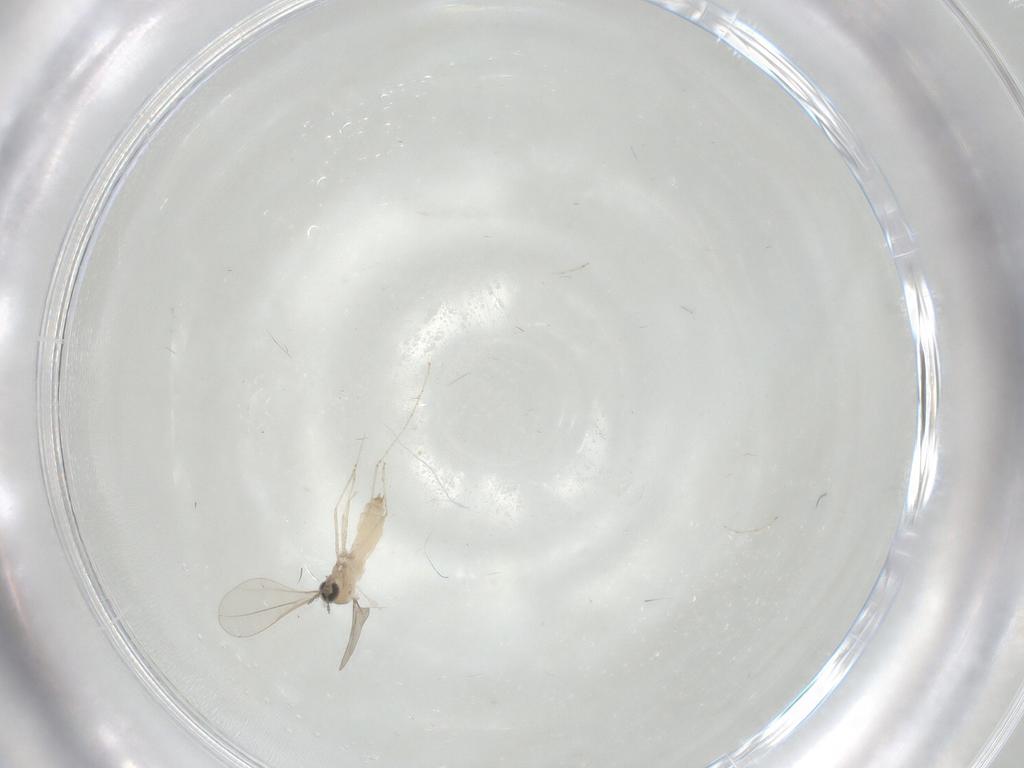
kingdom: Animalia
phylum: Arthropoda
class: Insecta
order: Diptera
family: Cecidomyiidae
